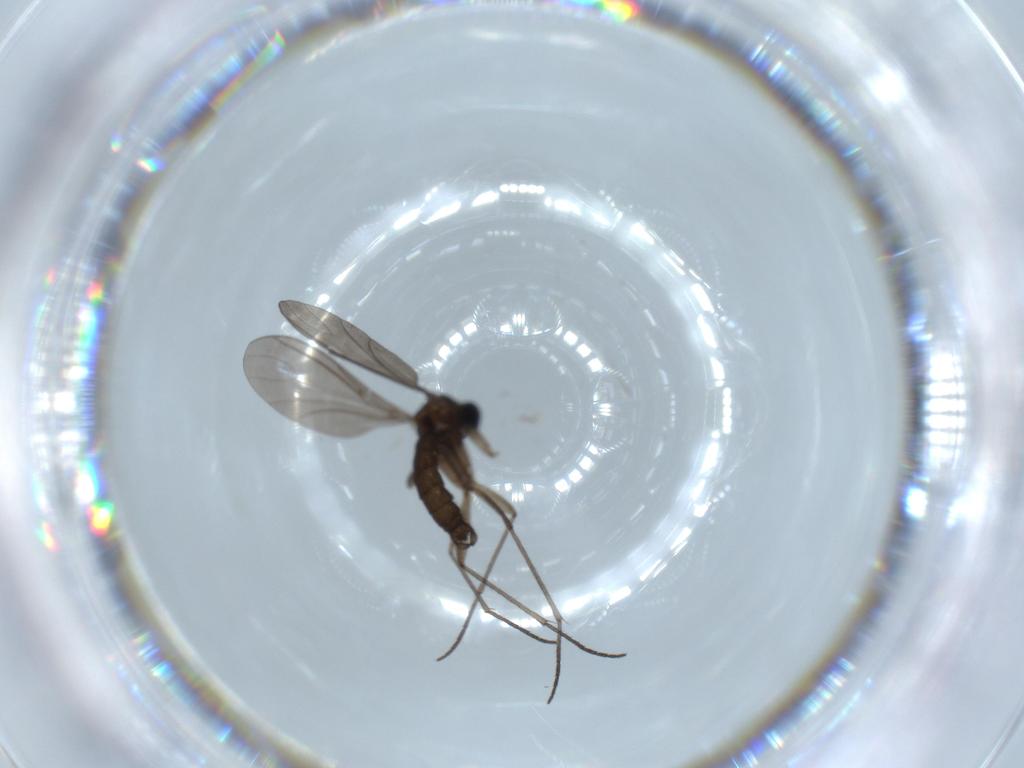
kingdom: Animalia
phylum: Arthropoda
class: Insecta
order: Diptera
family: Sciaridae
